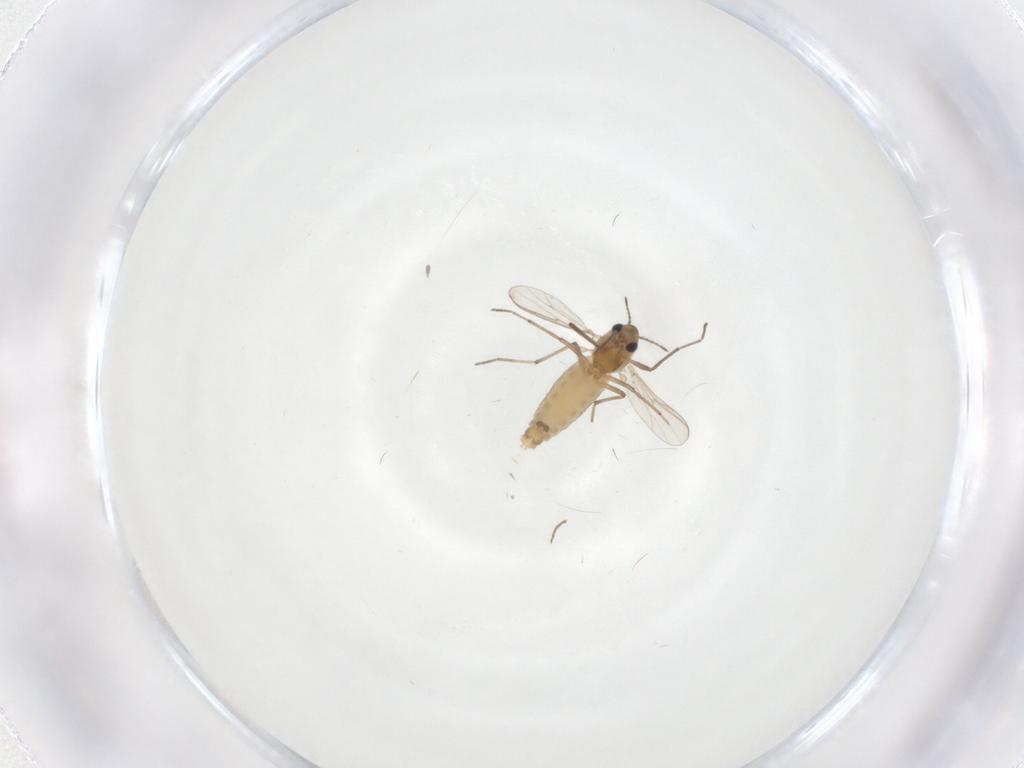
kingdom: Animalia
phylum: Arthropoda
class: Insecta
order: Diptera
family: Chironomidae
